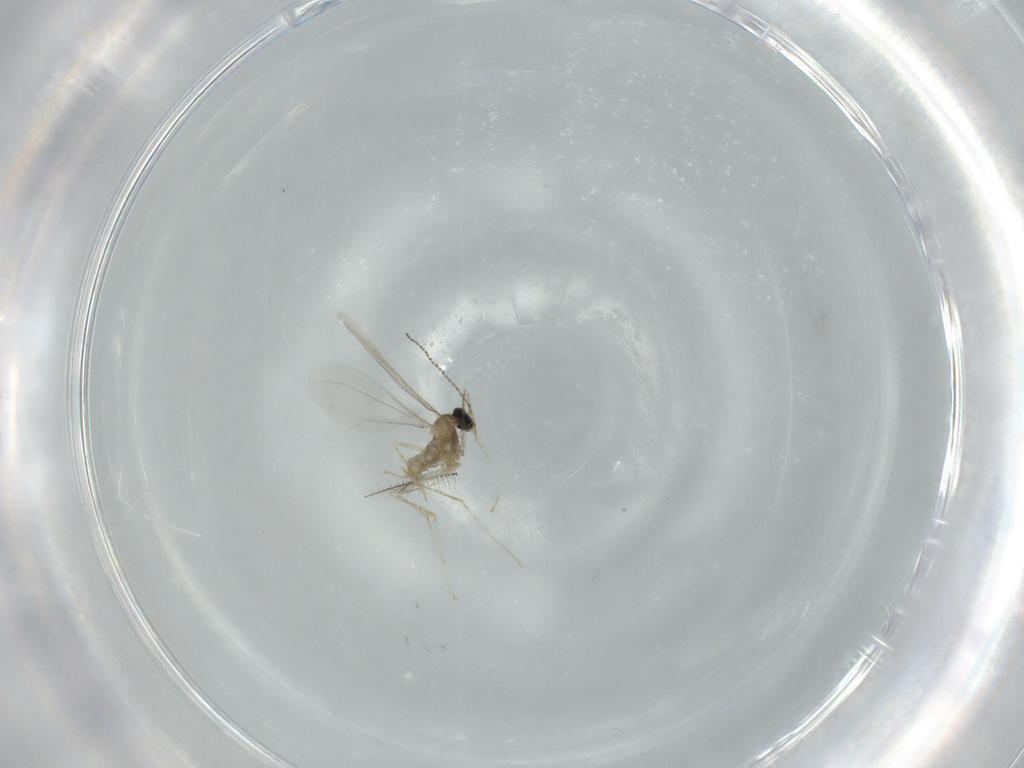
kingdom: Animalia
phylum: Arthropoda
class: Insecta
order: Diptera
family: Cecidomyiidae
